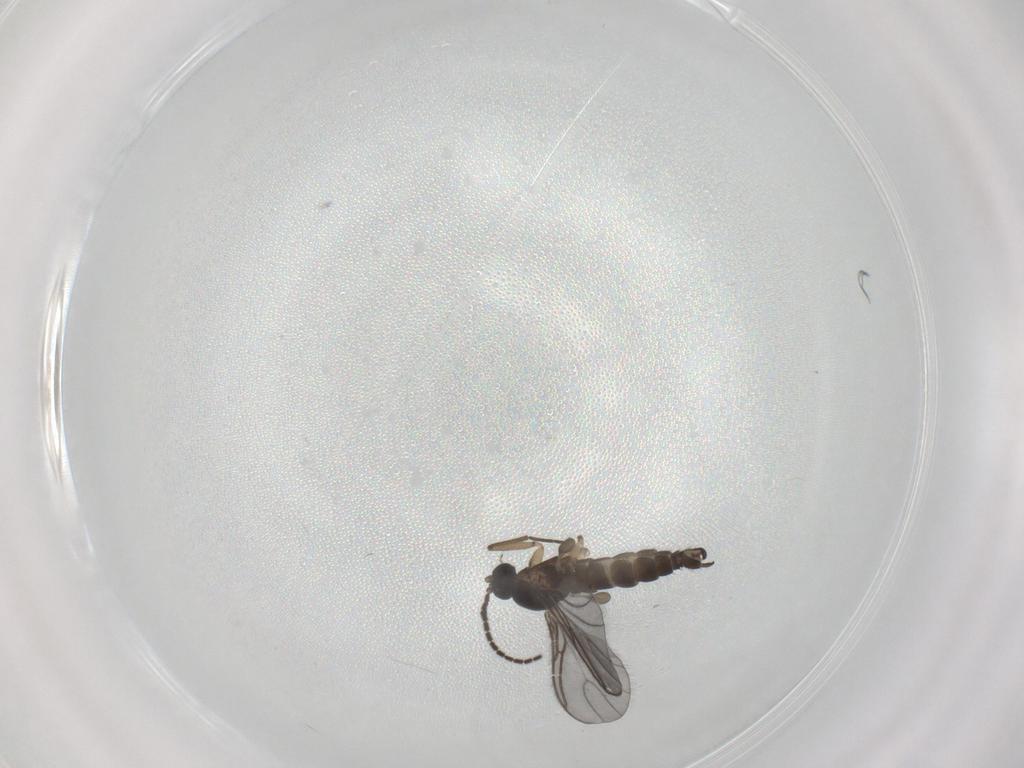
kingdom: Animalia
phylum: Arthropoda
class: Insecta
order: Diptera
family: Sciaridae
